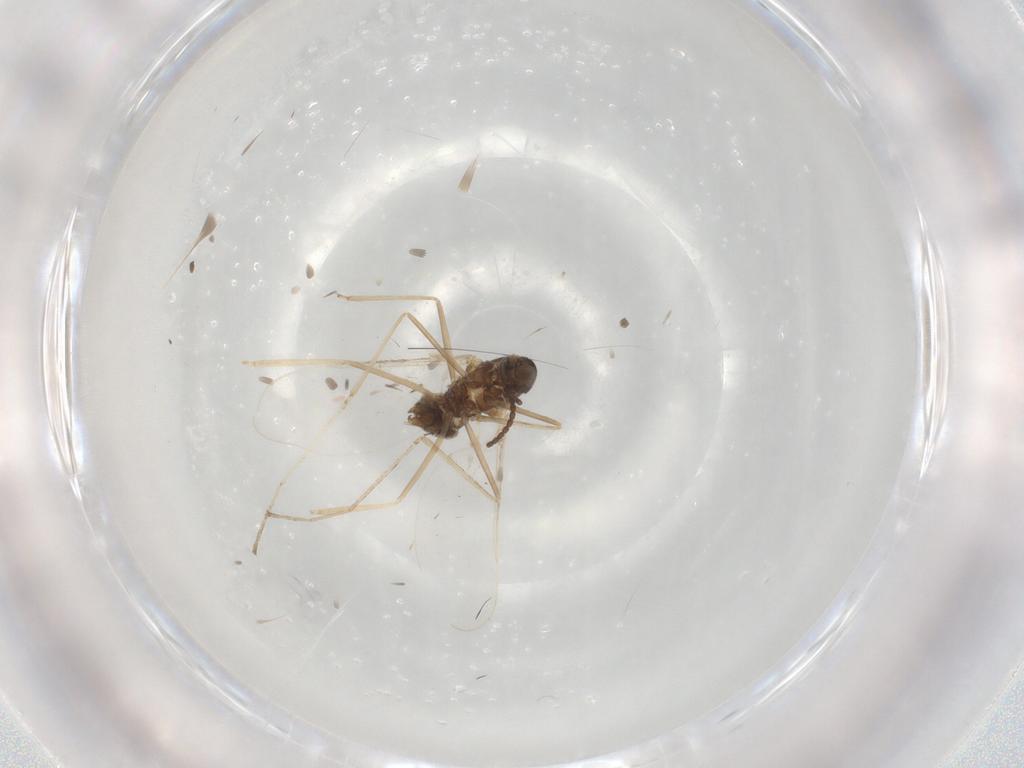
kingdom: Animalia
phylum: Arthropoda
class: Insecta
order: Diptera
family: Cecidomyiidae
